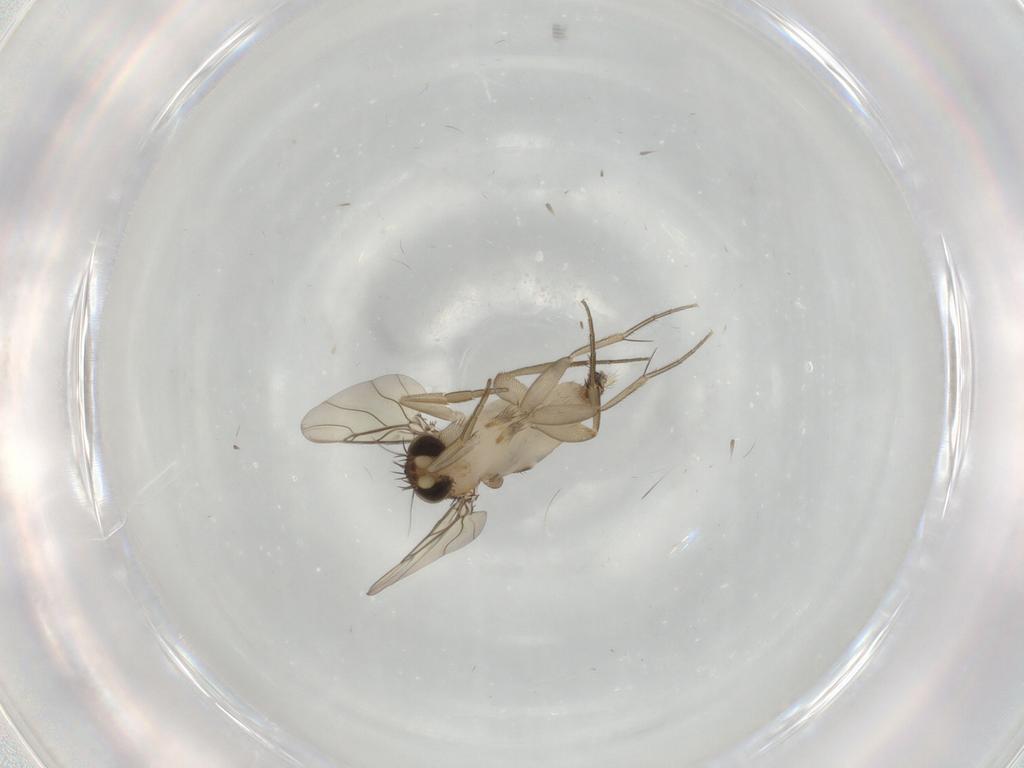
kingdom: Animalia
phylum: Arthropoda
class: Insecta
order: Diptera
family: Phoridae
